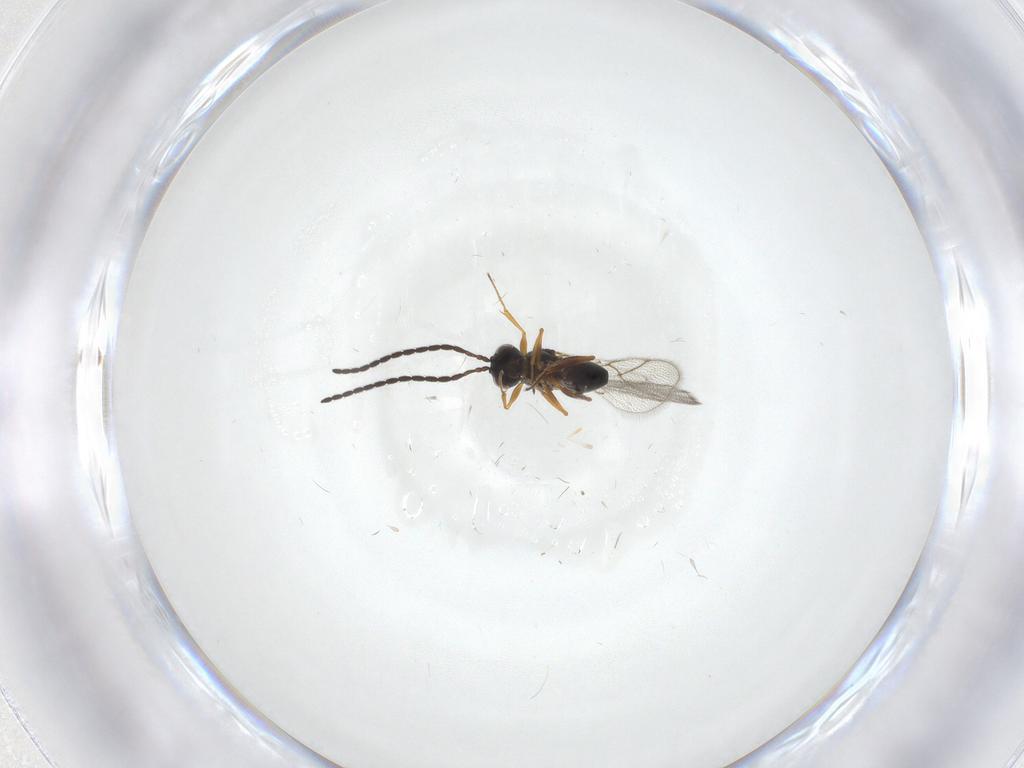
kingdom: Animalia
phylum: Arthropoda
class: Insecta
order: Hymenoptera
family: Figitidae
